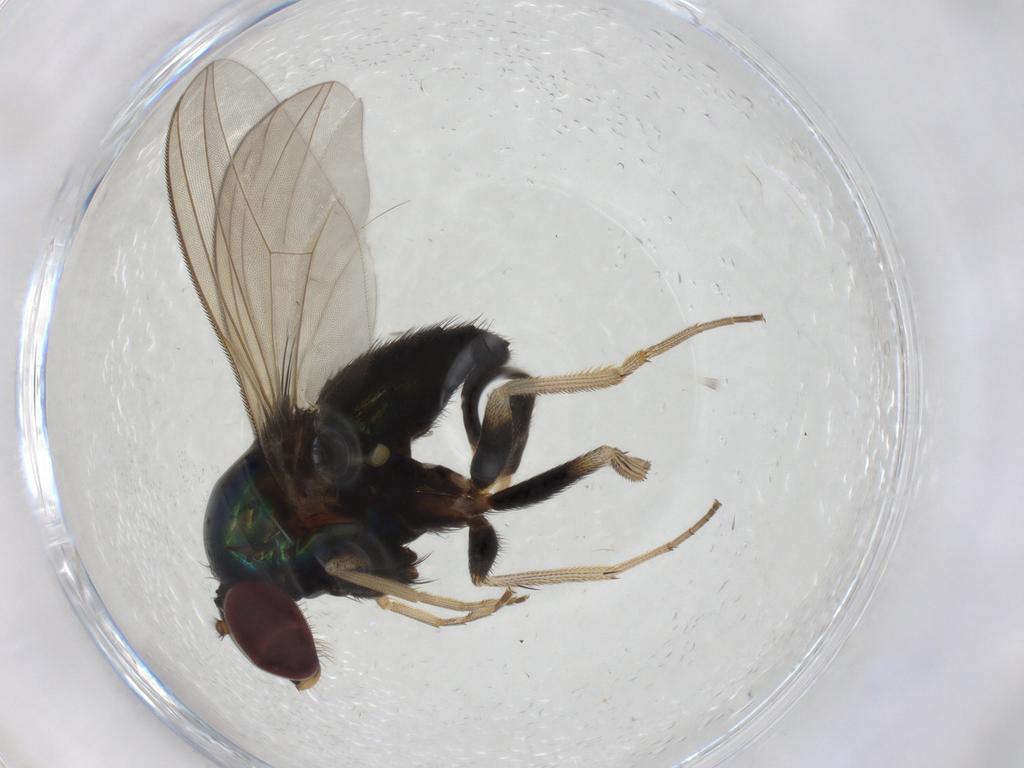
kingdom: Animalia
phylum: Arthropoda
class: Insecta
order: Diptera
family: Dolichopodidae
